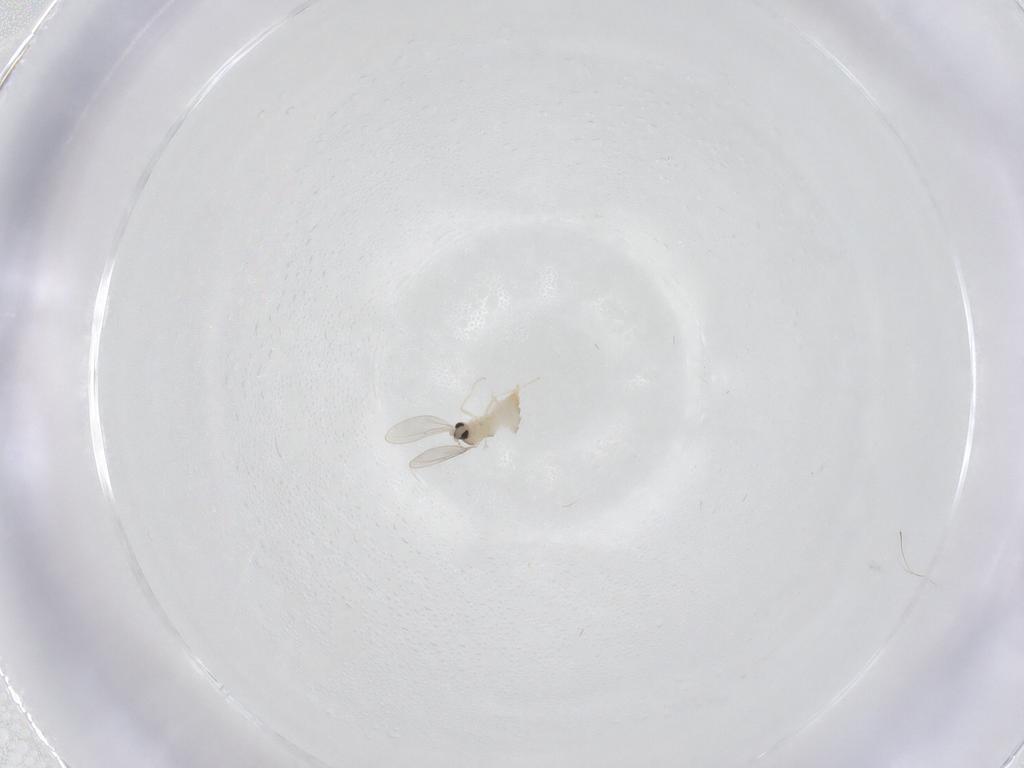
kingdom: Animalia
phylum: Arthropoda
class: Insecta
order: Diptera
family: Cecidomyiidae
